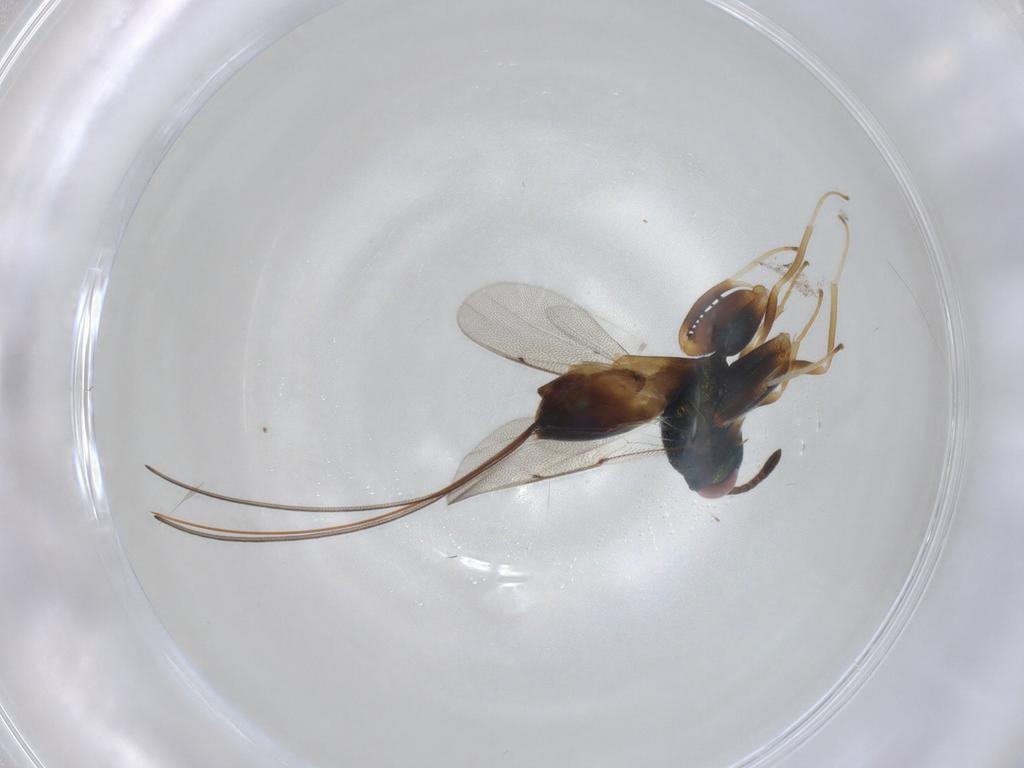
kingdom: Animalia
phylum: Arthropoda
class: Insecta
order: Hymenoptera
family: Torymidae
